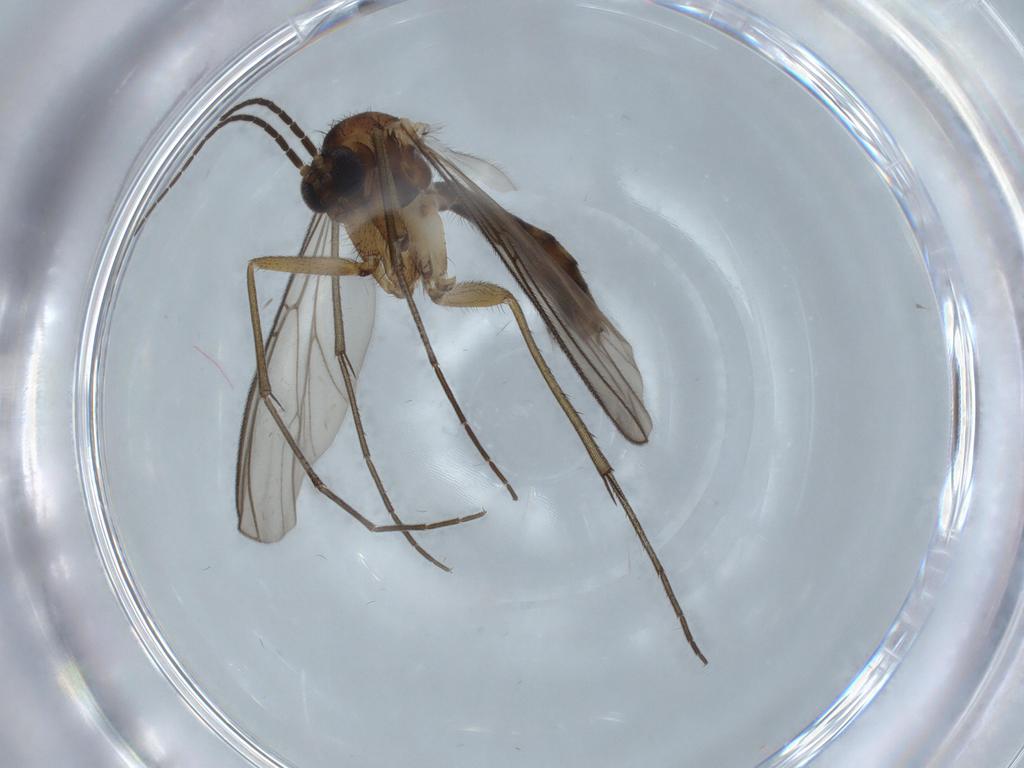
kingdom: Animalia
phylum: Arthropoda
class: Insecta
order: Diptera
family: Sciaridae
